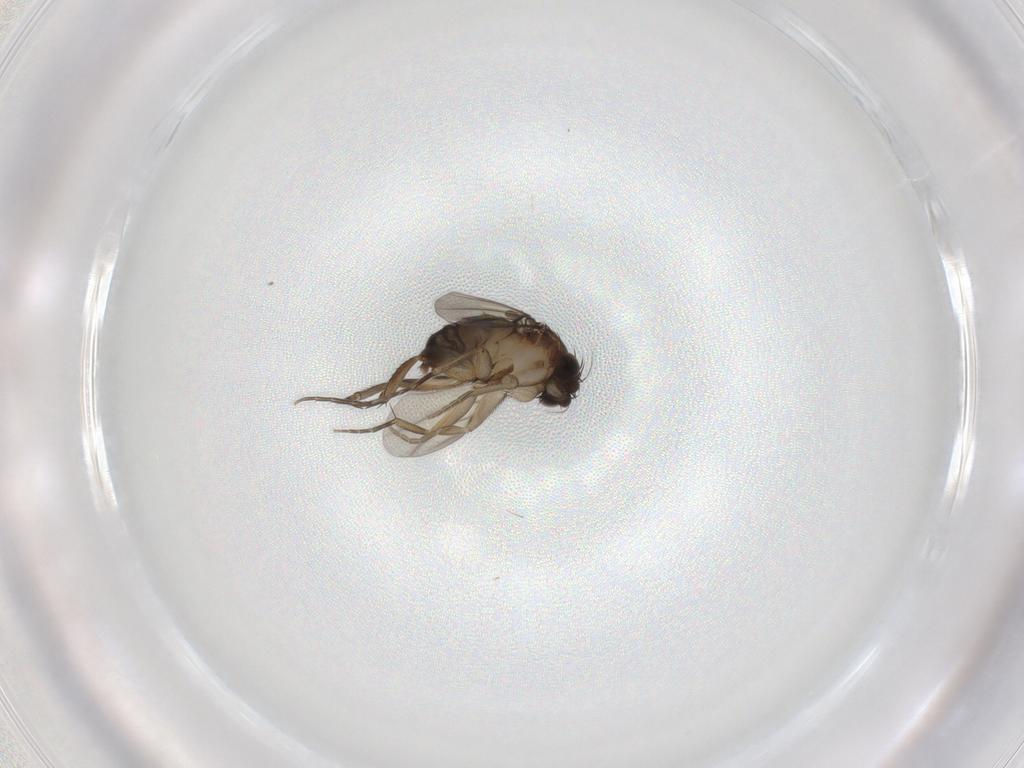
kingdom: Animalia
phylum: Arthropoda
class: Insecta
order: Diptera
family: Phoridae
